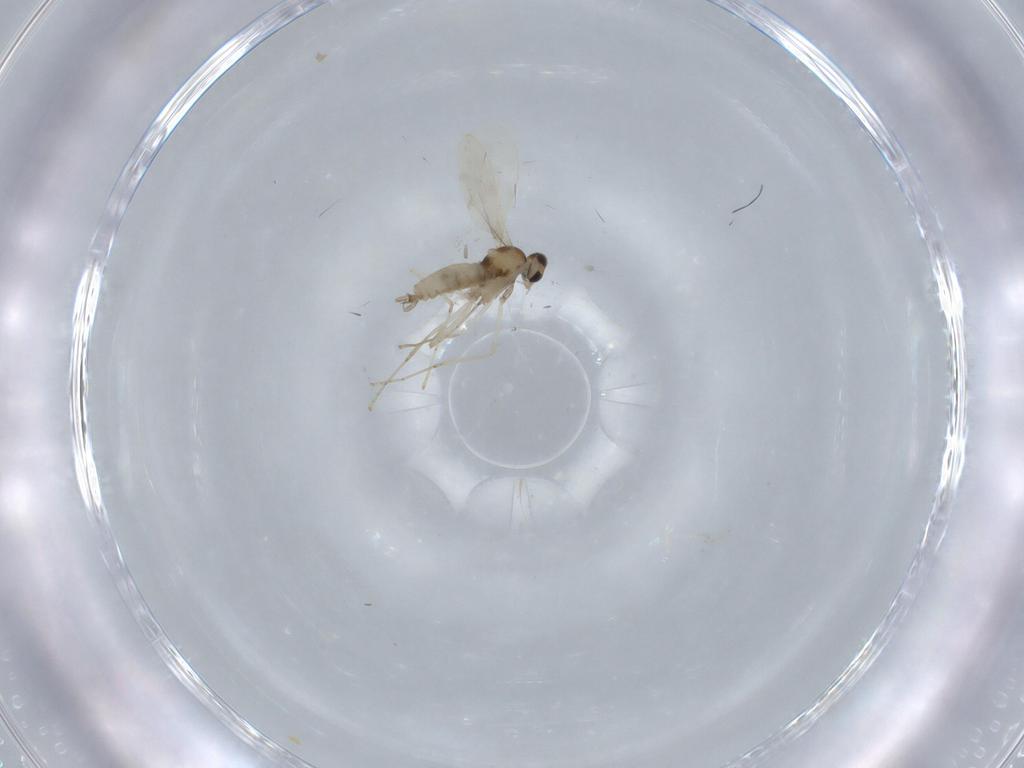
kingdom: Animalia
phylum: Arthropoda
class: Insecta
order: Diptera
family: Cecidomyiidae
